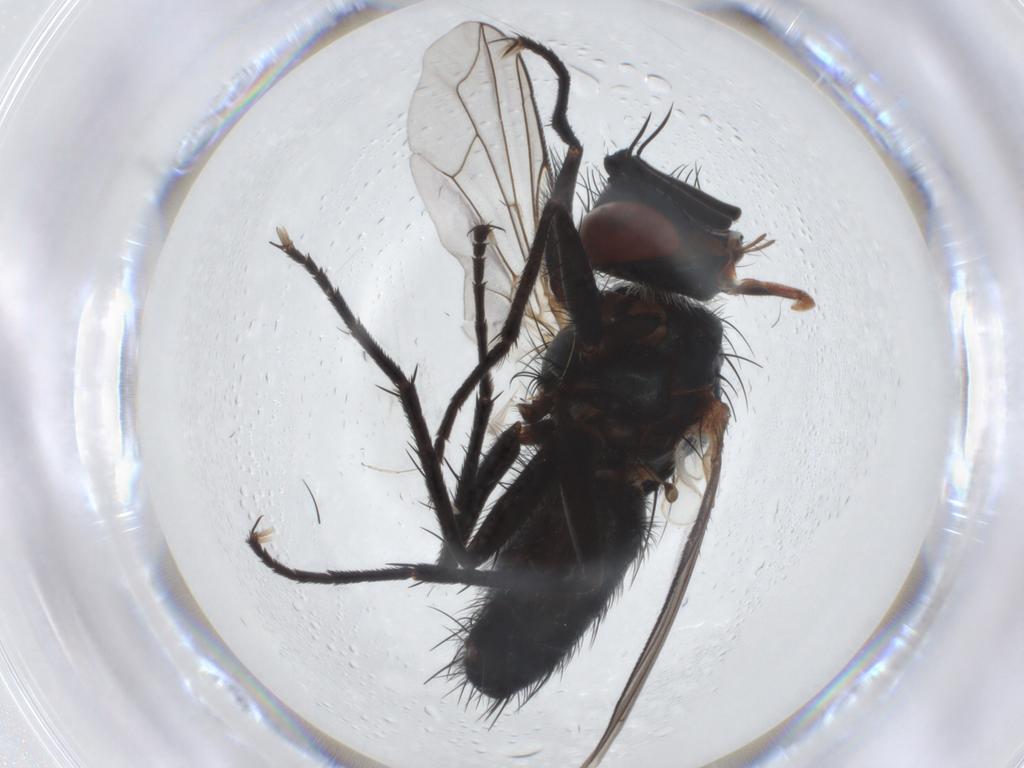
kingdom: Animalia
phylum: Arthropoda
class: Insecta
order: Diptera
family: Tachinidae
